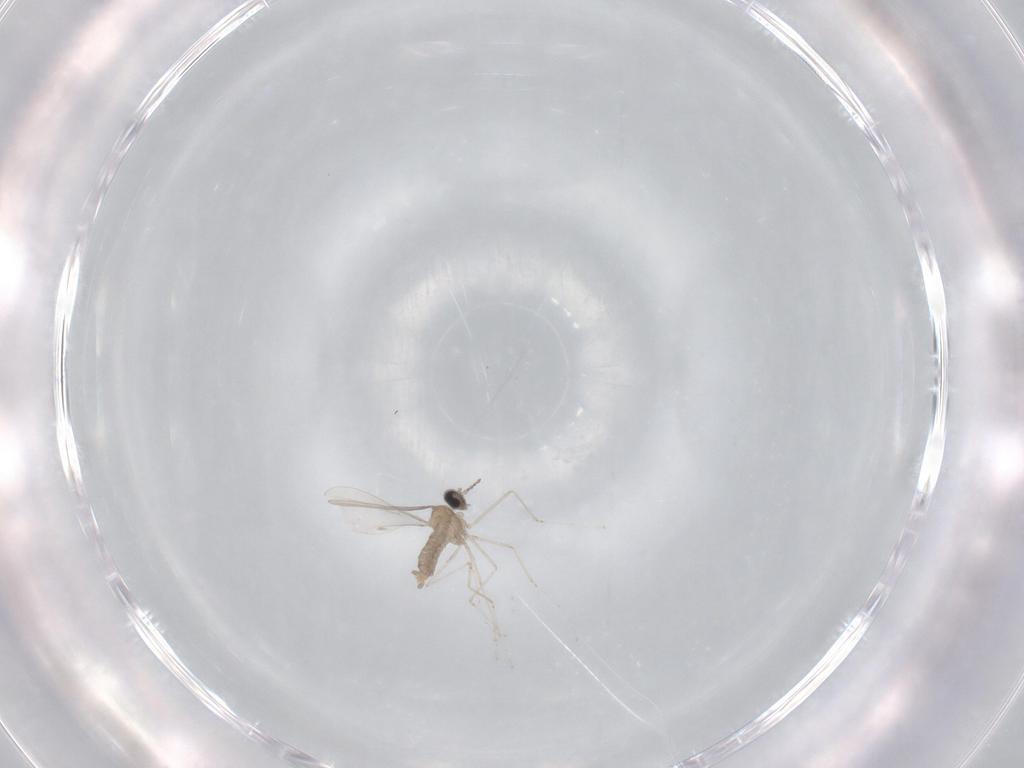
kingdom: Animalia
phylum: Arthropoda
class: Insecta
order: Diptera
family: Cecidomyiidae
